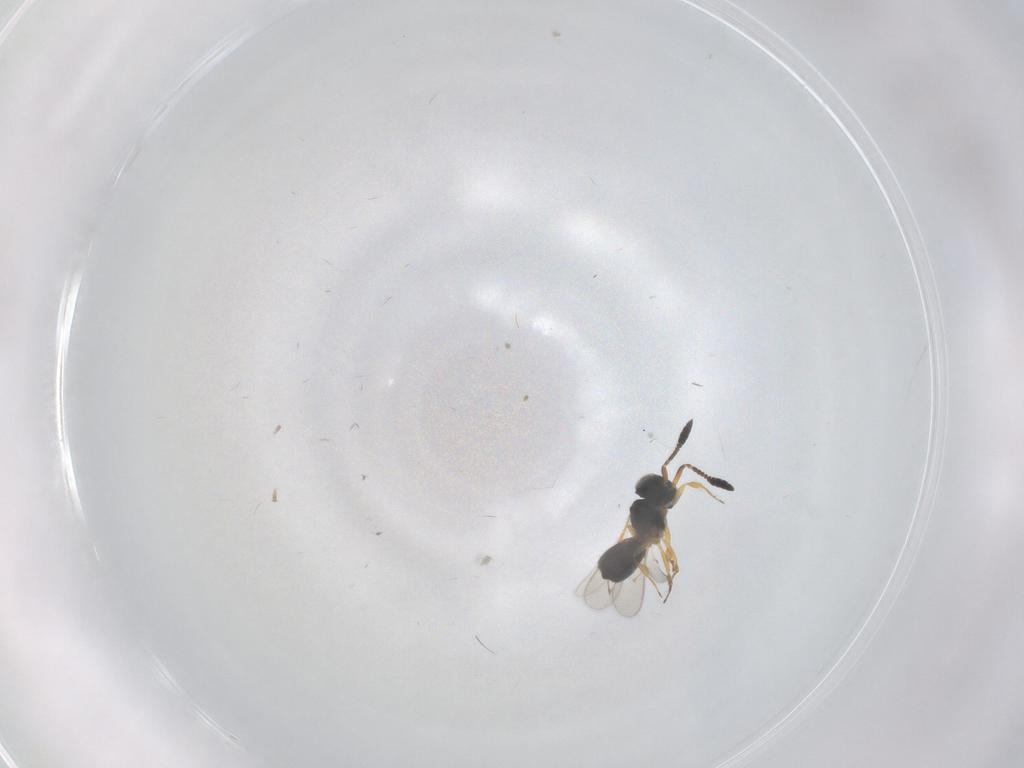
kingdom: Animalia
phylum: Arthropoda
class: Insecta
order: Hymenoptera
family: Scelionidae
